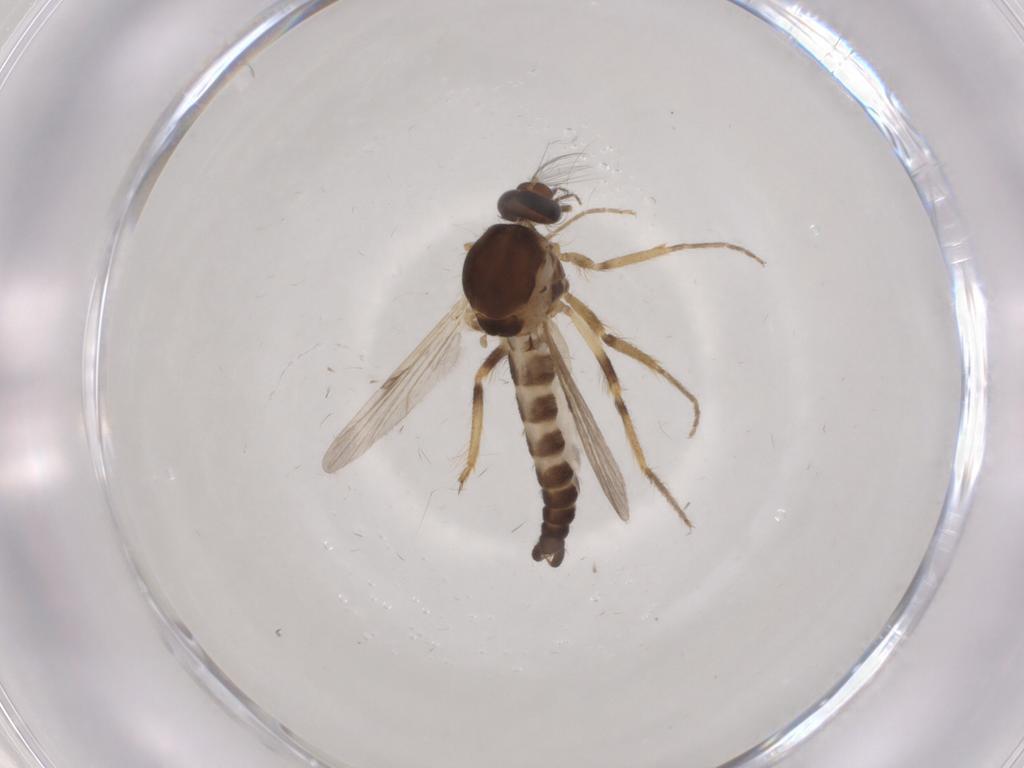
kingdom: Animalia
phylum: Arthropoda
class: Insecta
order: Diptera
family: Ceratopogonidae
